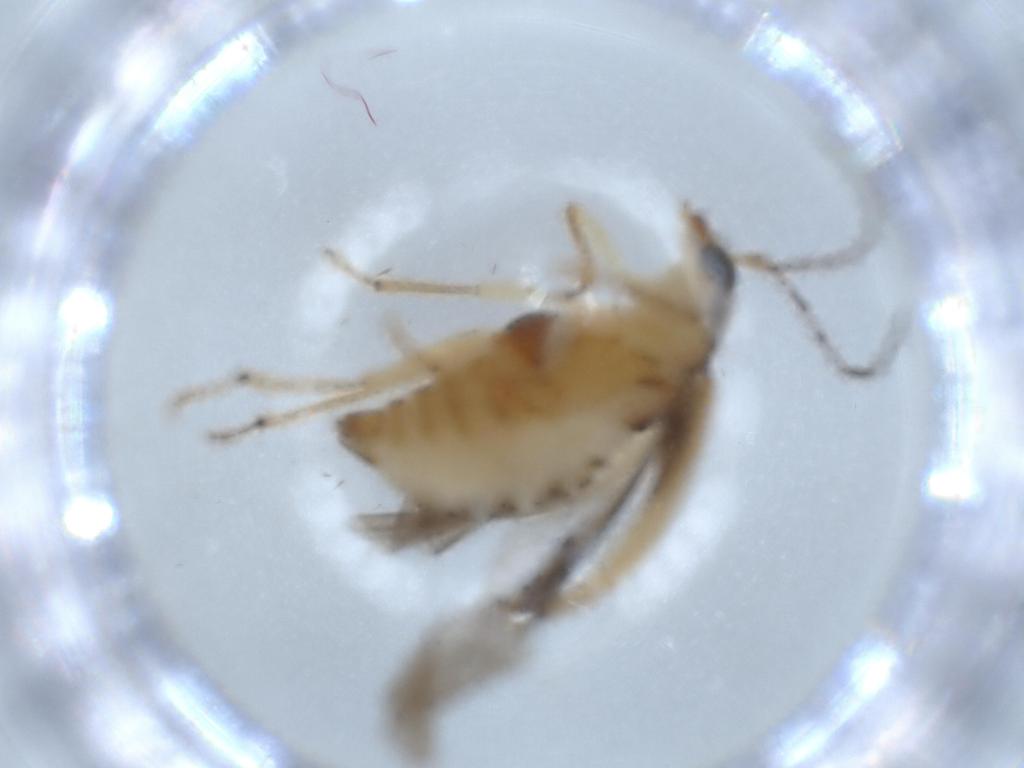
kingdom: Animalia
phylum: Arthropoda
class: Insecta
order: Coleoptera
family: Chrysomelidae
